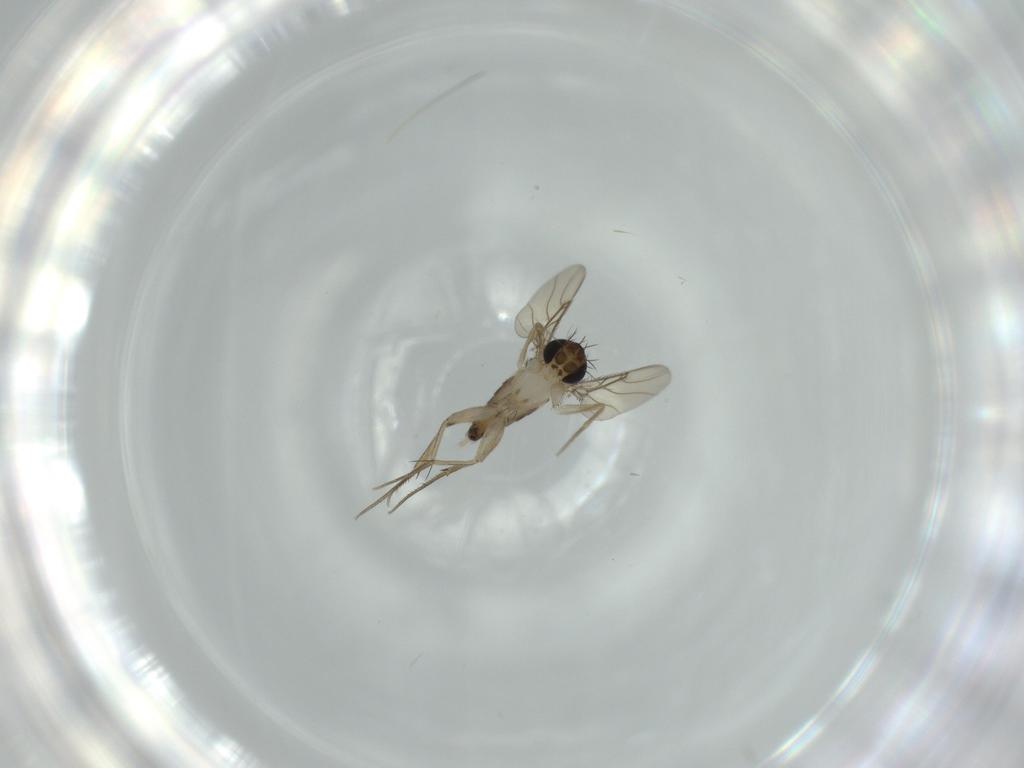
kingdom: Animalia
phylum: Arthropoda
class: Insecta
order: Diptera
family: Phoridae
